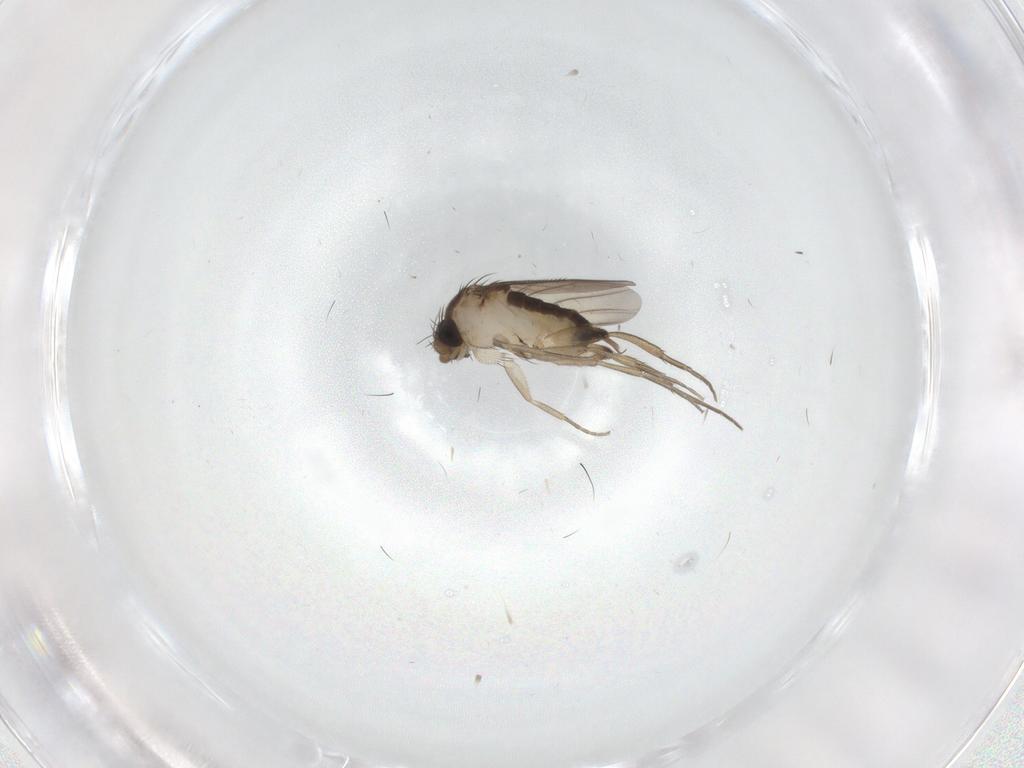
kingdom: Animalia
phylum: Arthropoda
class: Insecta
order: Diptera
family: Phoridae
